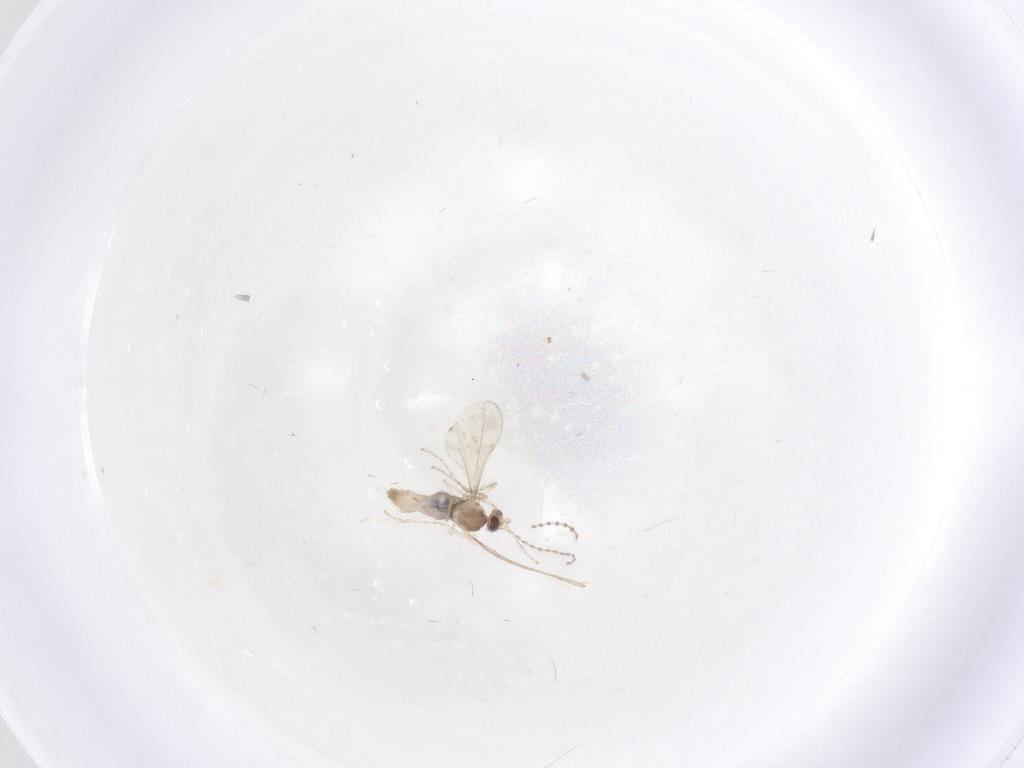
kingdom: Animalia
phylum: Arthropoda
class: Insecta
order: Diptera
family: Cecidomyiidae
